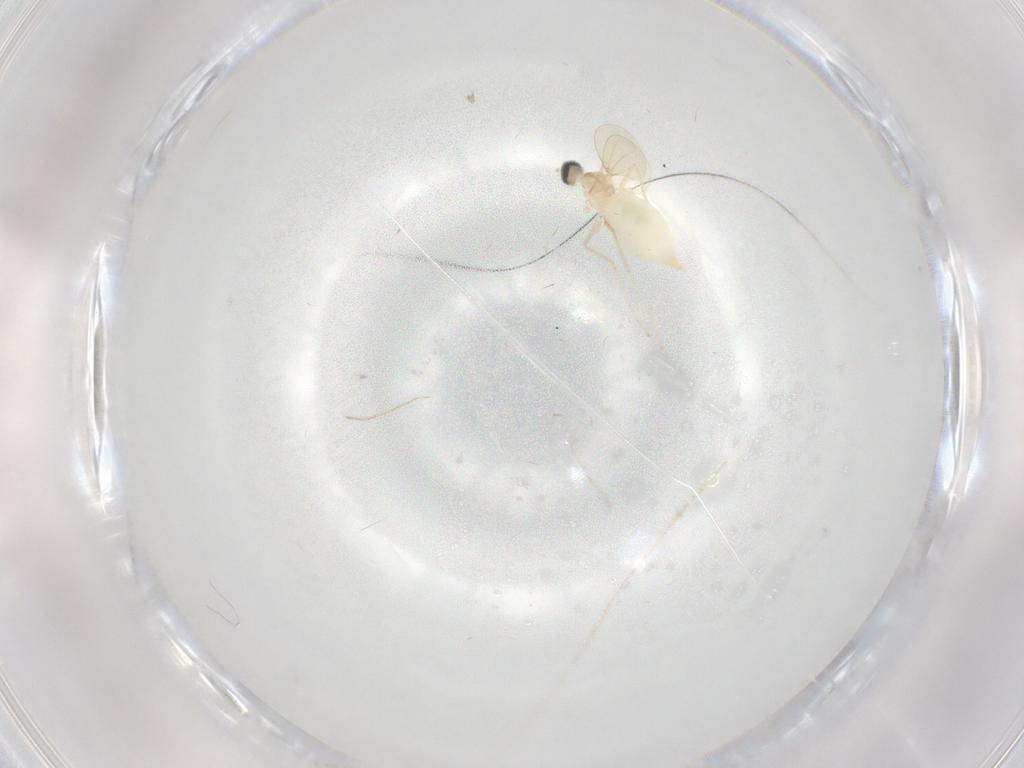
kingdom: Animalia
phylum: Arthropoda
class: Insecta
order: Diptera
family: Cecidomyiidae
